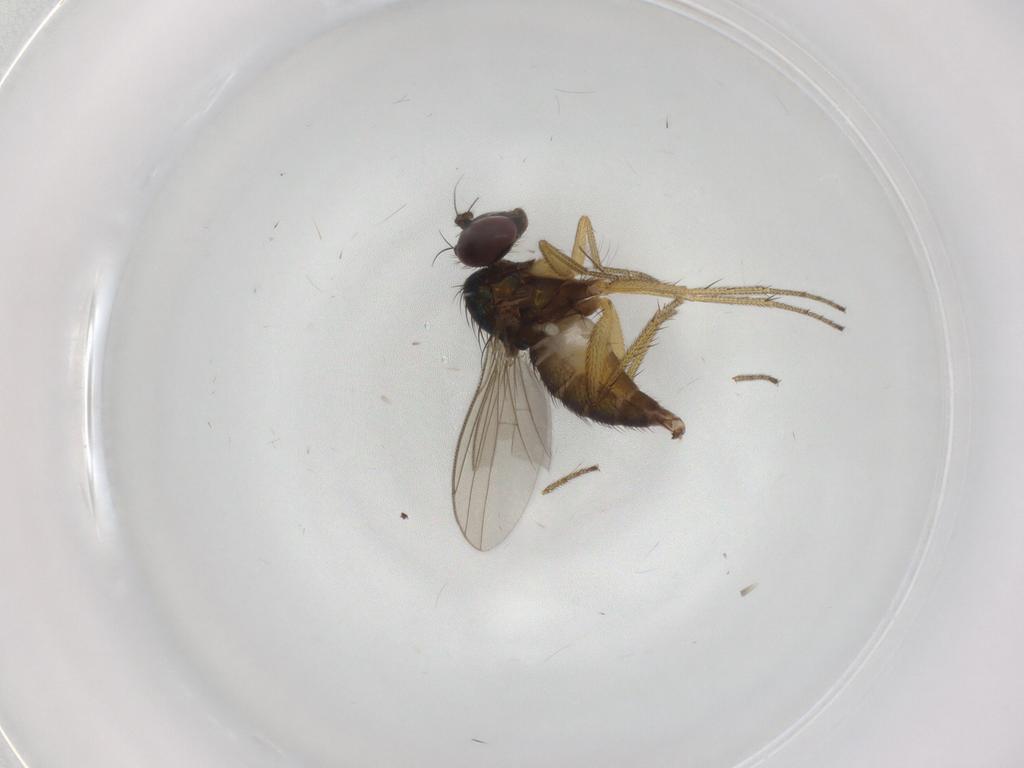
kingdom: Animalia
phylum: Arthropoda
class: Insecta
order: Diptera
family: Dolichopodidae
